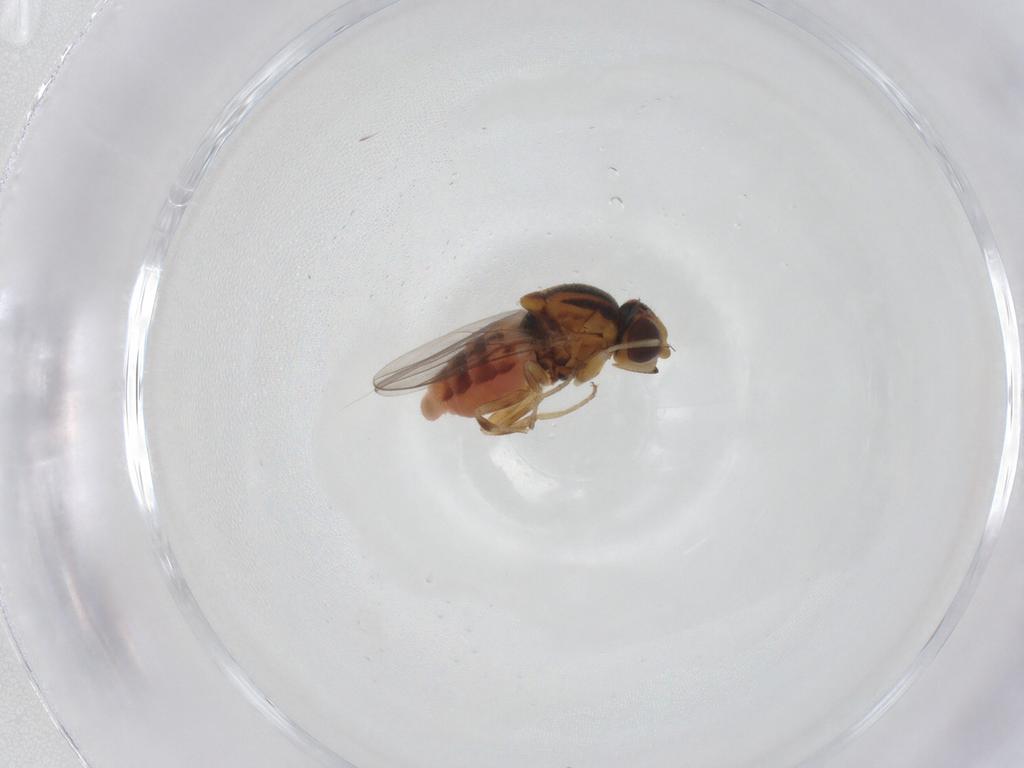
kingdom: Animalia
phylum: Arthropoda
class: Insecta
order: Diptera
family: Chloropidae
